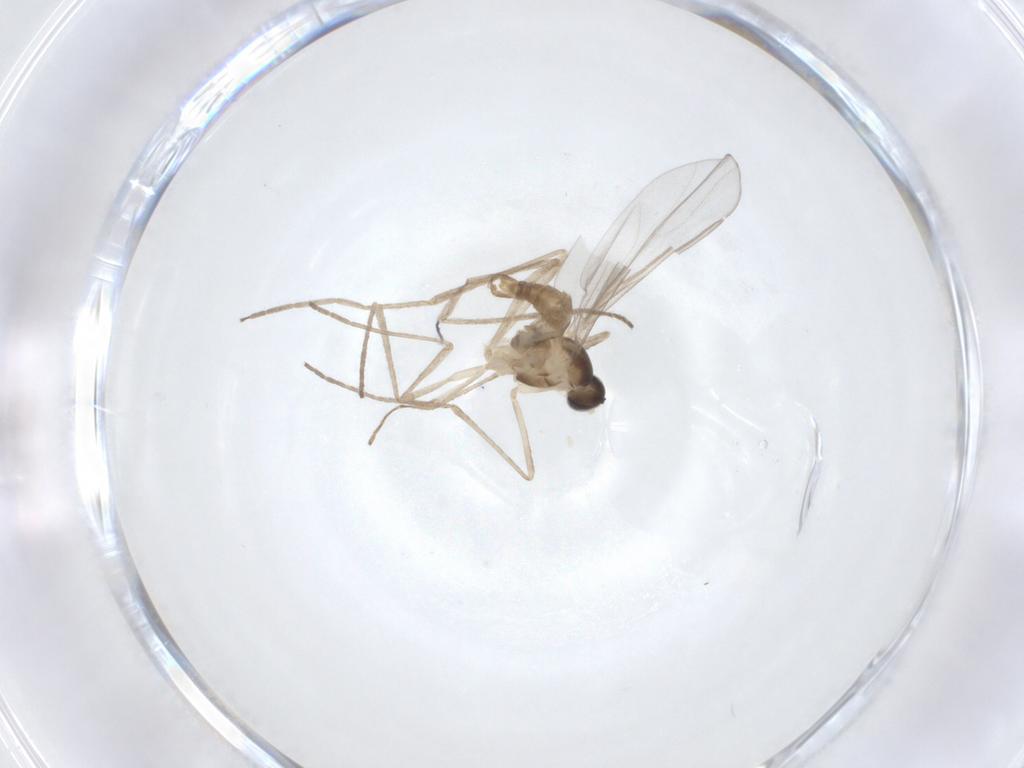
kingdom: Animalia
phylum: Arthropoda
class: Insecta
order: Diptera
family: Cecidomyiidae
